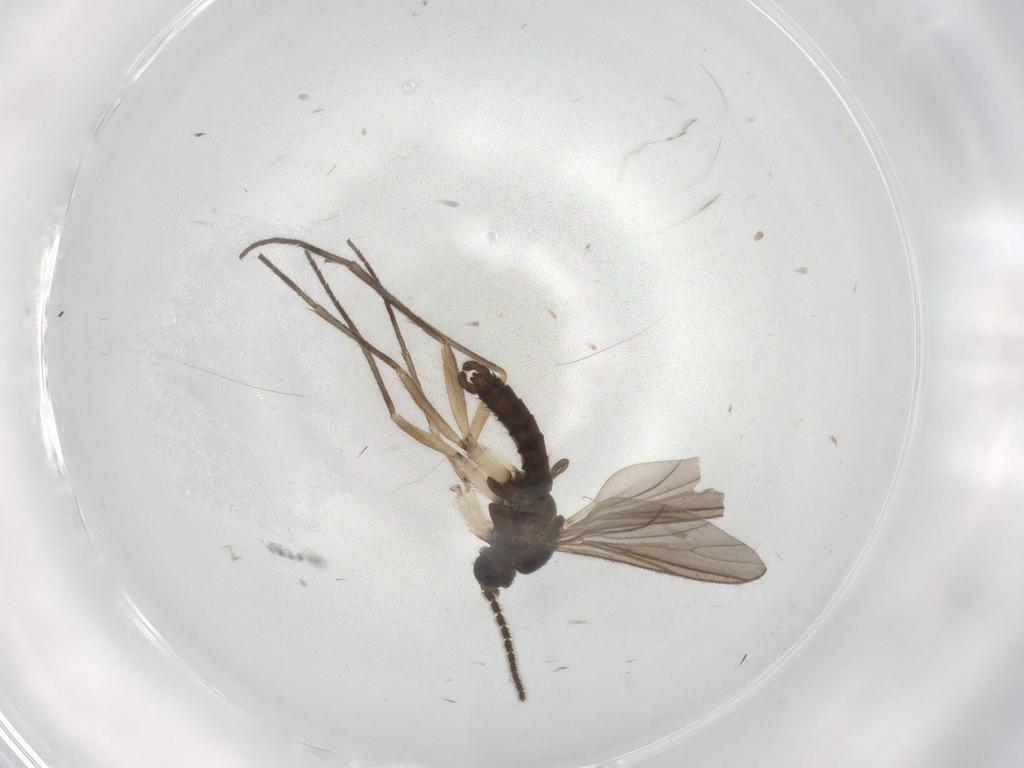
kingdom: Animalia
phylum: Arthropoda
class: Insecta
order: Diptera
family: Sciaridae
